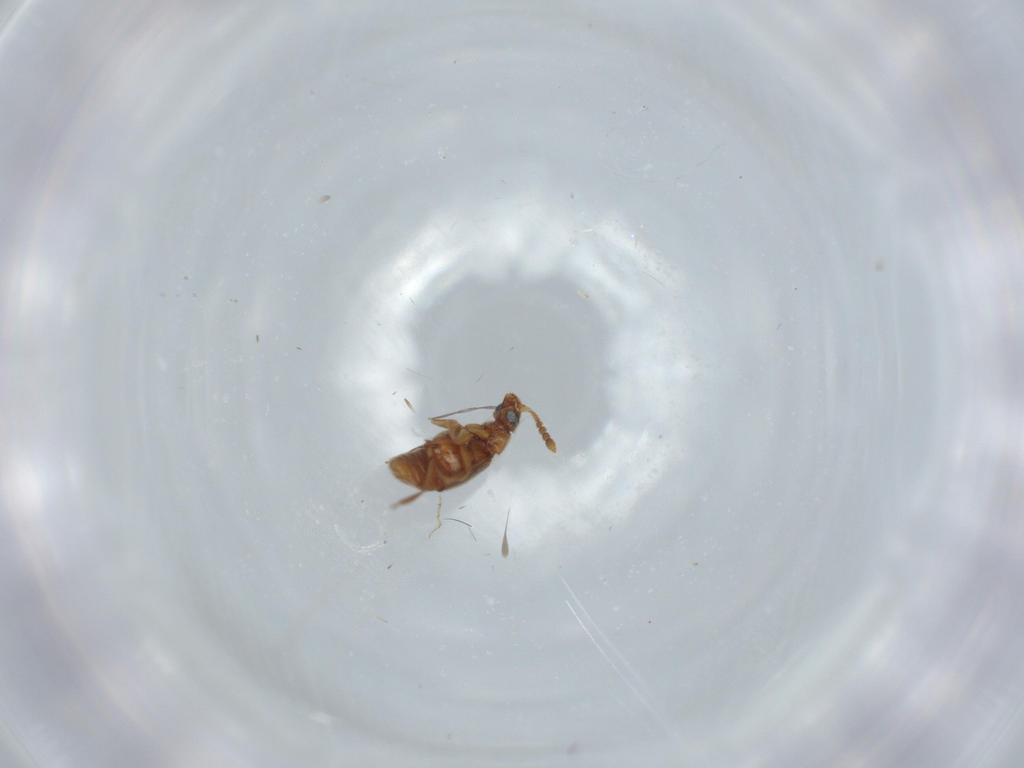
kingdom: Animalia
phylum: Arthropoda
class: Insecta
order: Coleoptera
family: Staphylinidae
